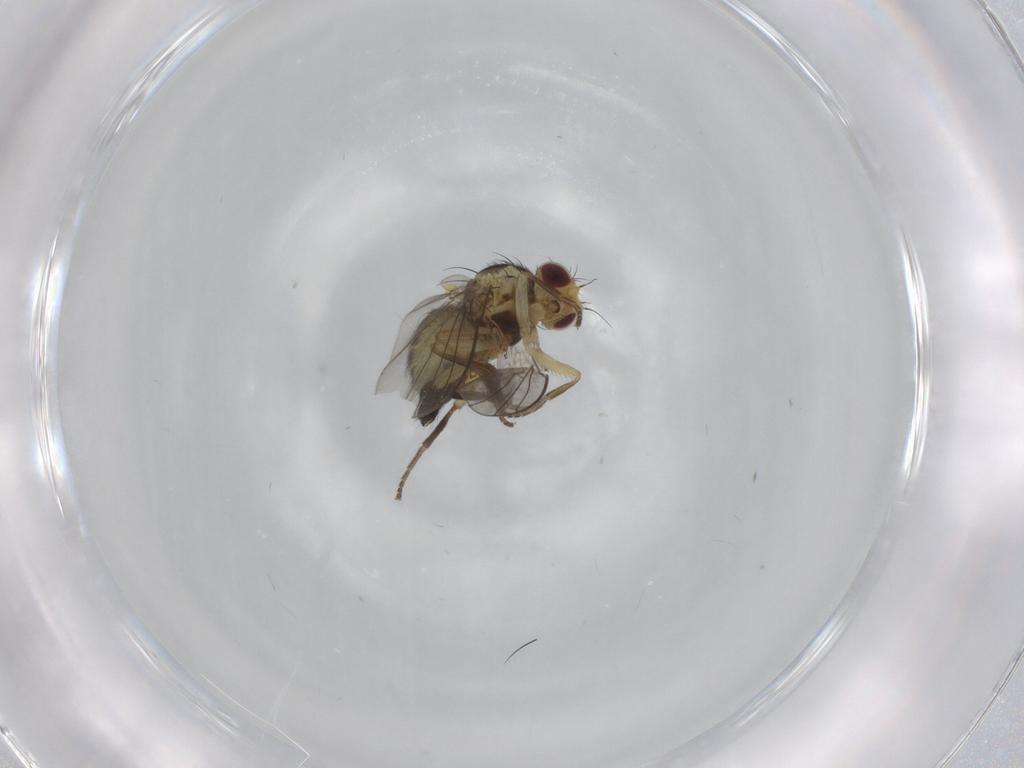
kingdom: Animalia
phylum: Arthropoda
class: Insecta
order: Diptera
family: Agromyzidae
